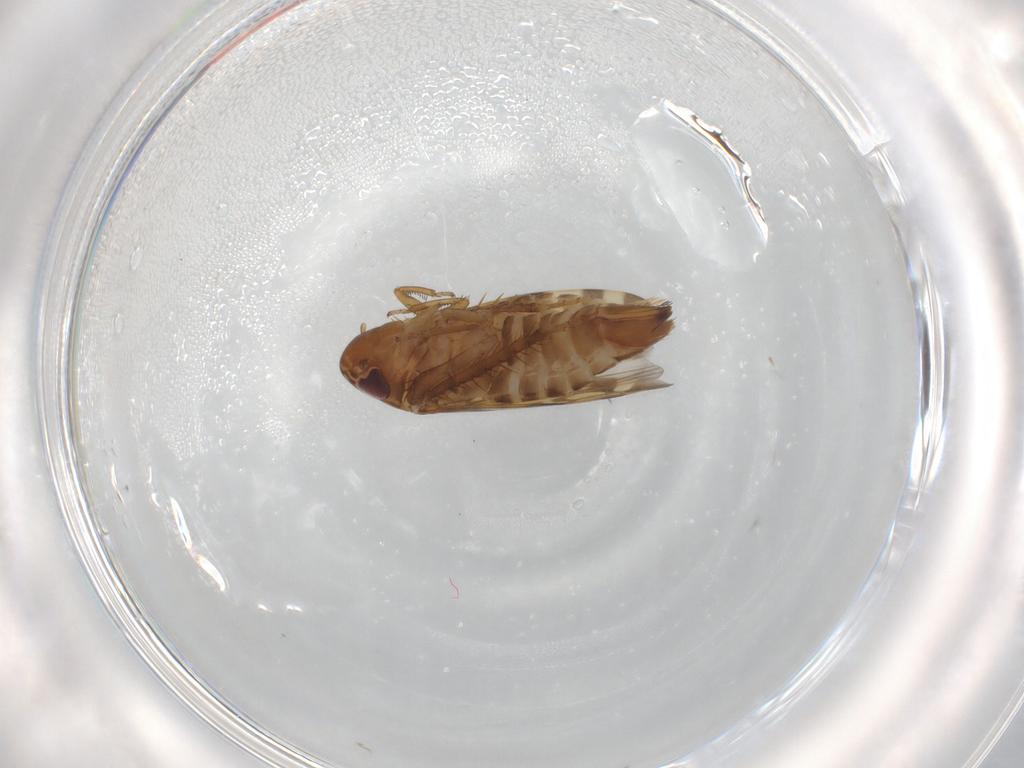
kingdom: Animalia
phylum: Arthropoda
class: Insecta
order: Hemiptera
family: Cicadellidae
